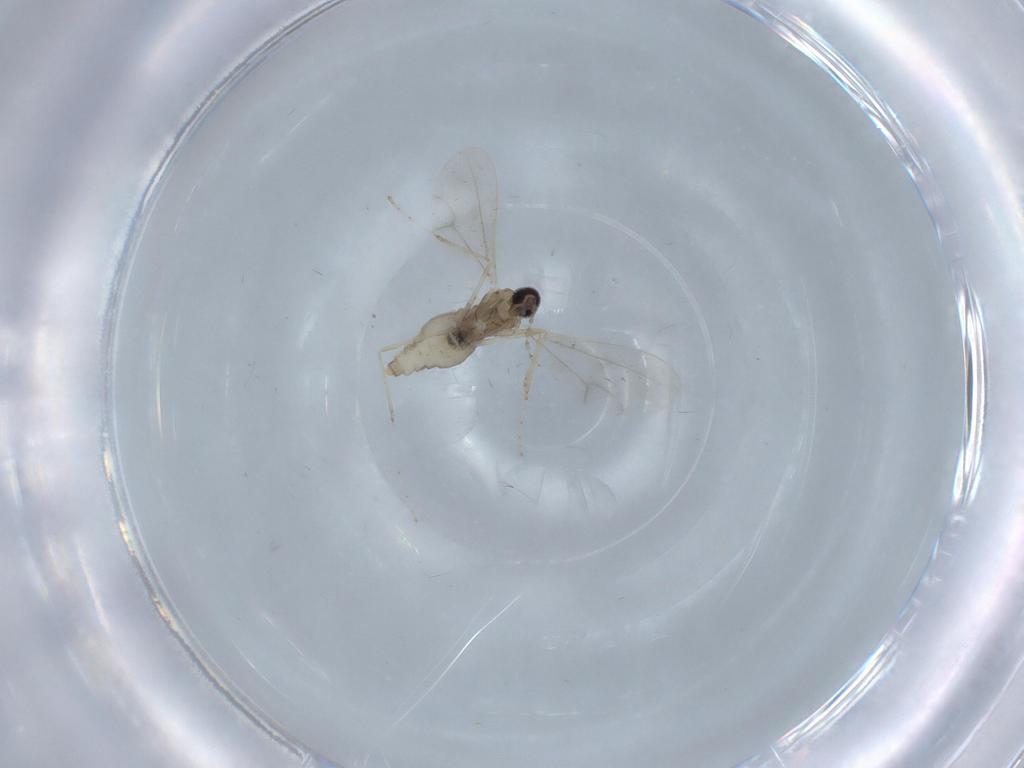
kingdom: Animalia
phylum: Arthropoda
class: Insecta
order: Diptera
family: Cecidomyiidae
